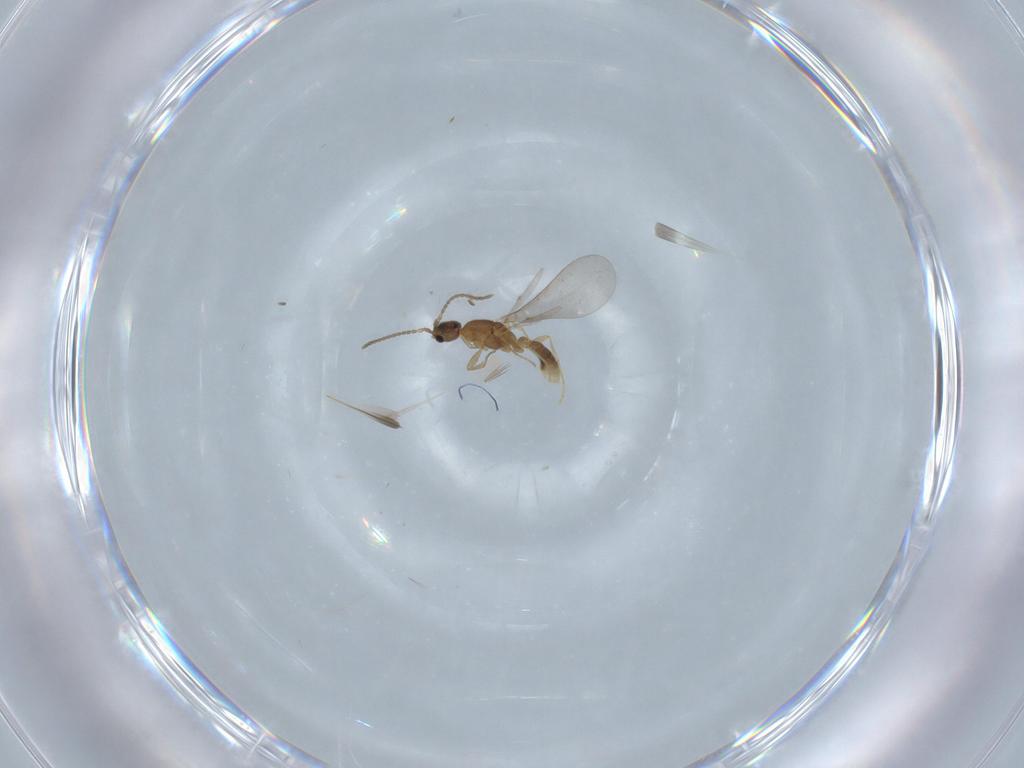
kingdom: Animalia
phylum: Arthropoda
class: Insecta
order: Hymenoptera
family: Formicidae
